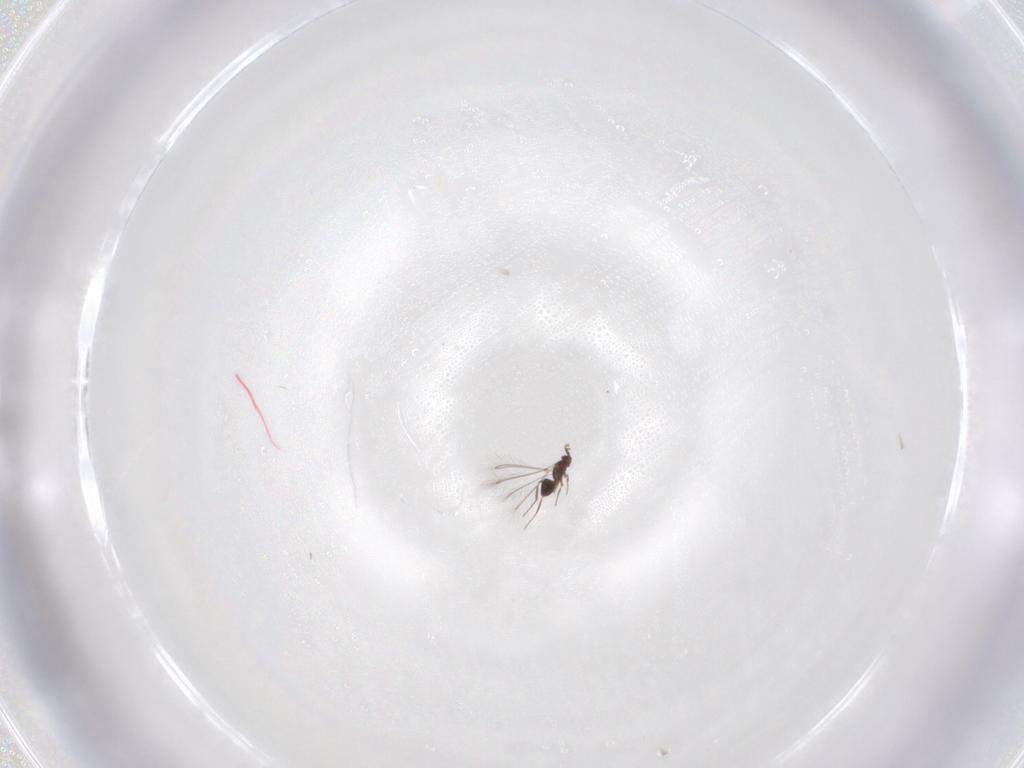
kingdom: Animalia
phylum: Arthropoda
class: Insecta
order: Hymenoptera
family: Mymaridae
